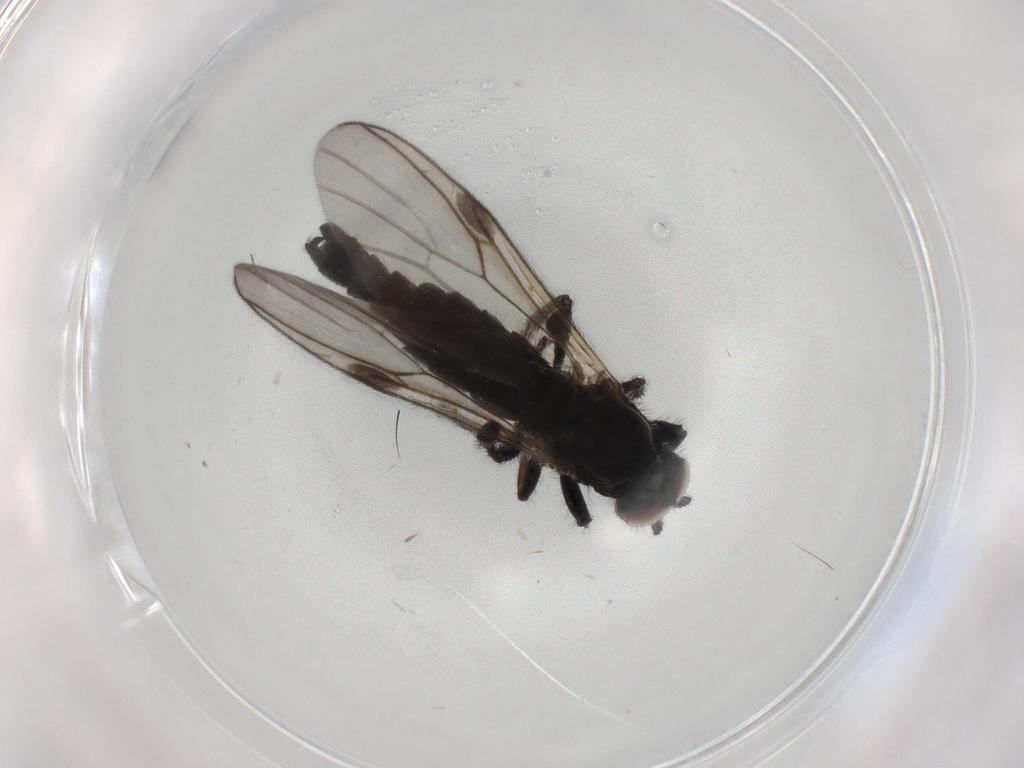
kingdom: Animalia
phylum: Arthropoda
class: Insecta
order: Diptera
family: Bibionidae
